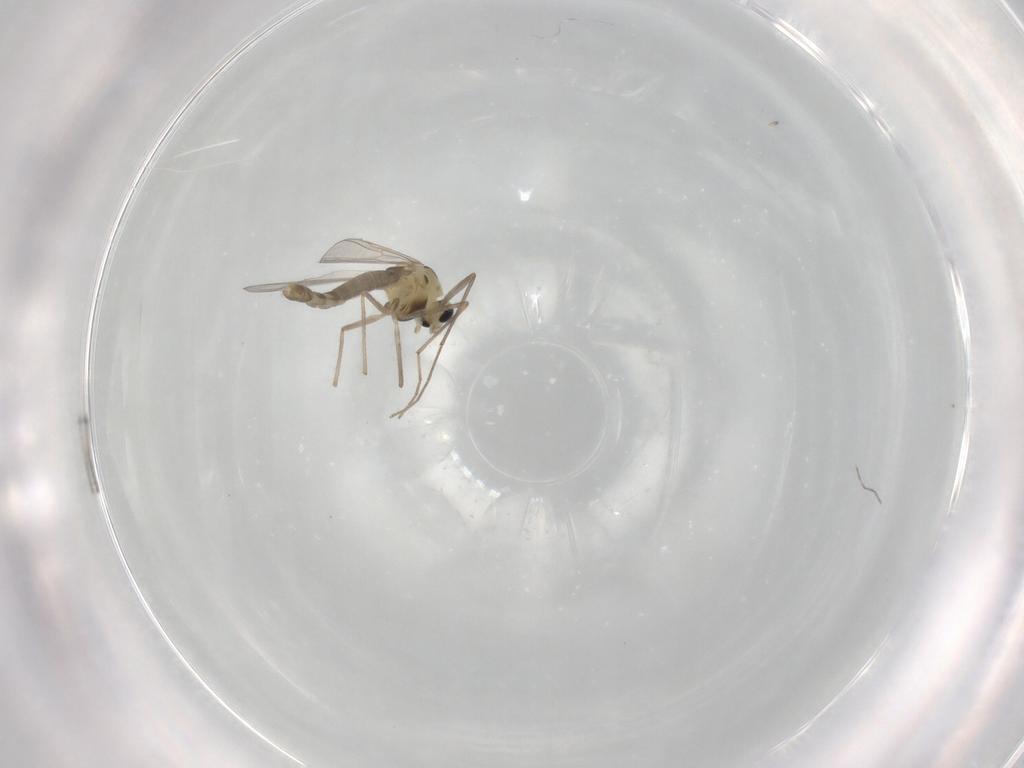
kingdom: Animalia
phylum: Arthropoda
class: Insecta
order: Diptera
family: Chironomidae
